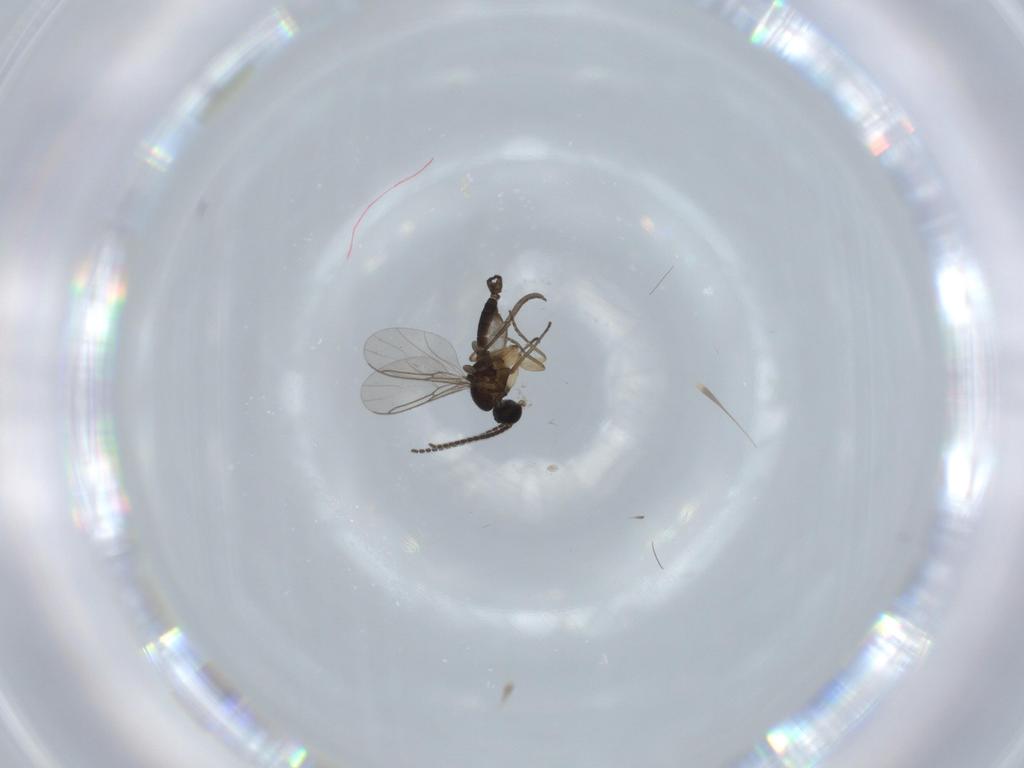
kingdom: Animalia
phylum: Arthropoda
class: Insecta
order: Diptera
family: Sciaridae
